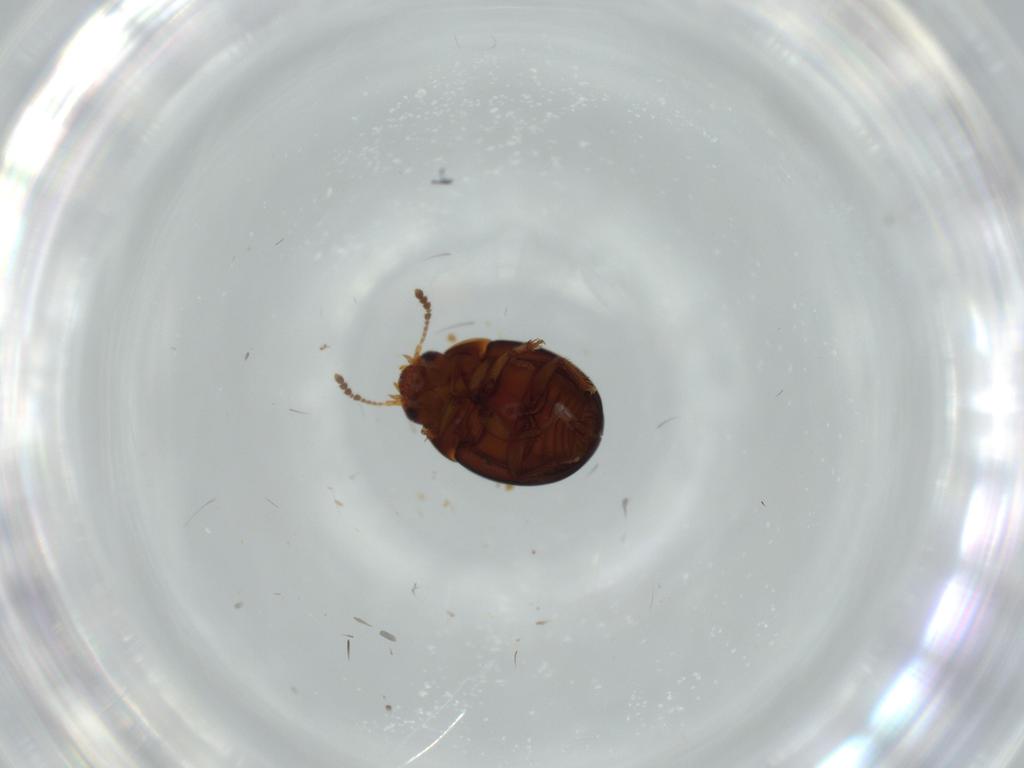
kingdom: Animalia
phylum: Arthropoda
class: Insecta
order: Coleoptera
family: Leiodidae
